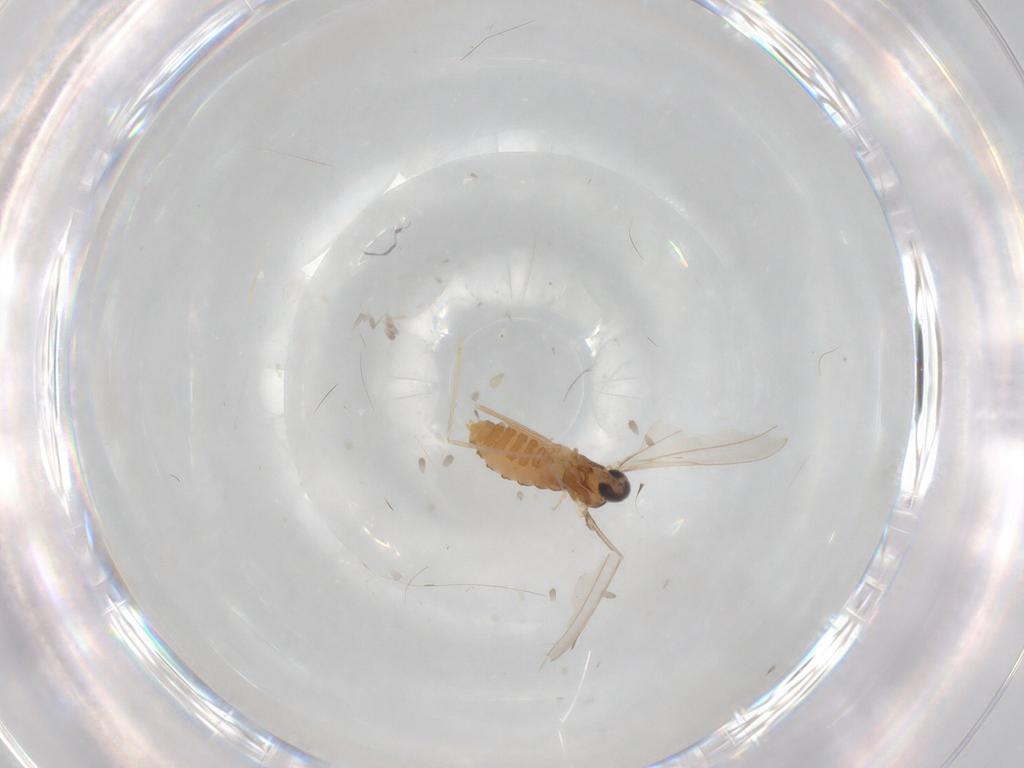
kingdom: Animalia
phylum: Arthropoda
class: Insecta
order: Diptera
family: Cecidomyiidae
